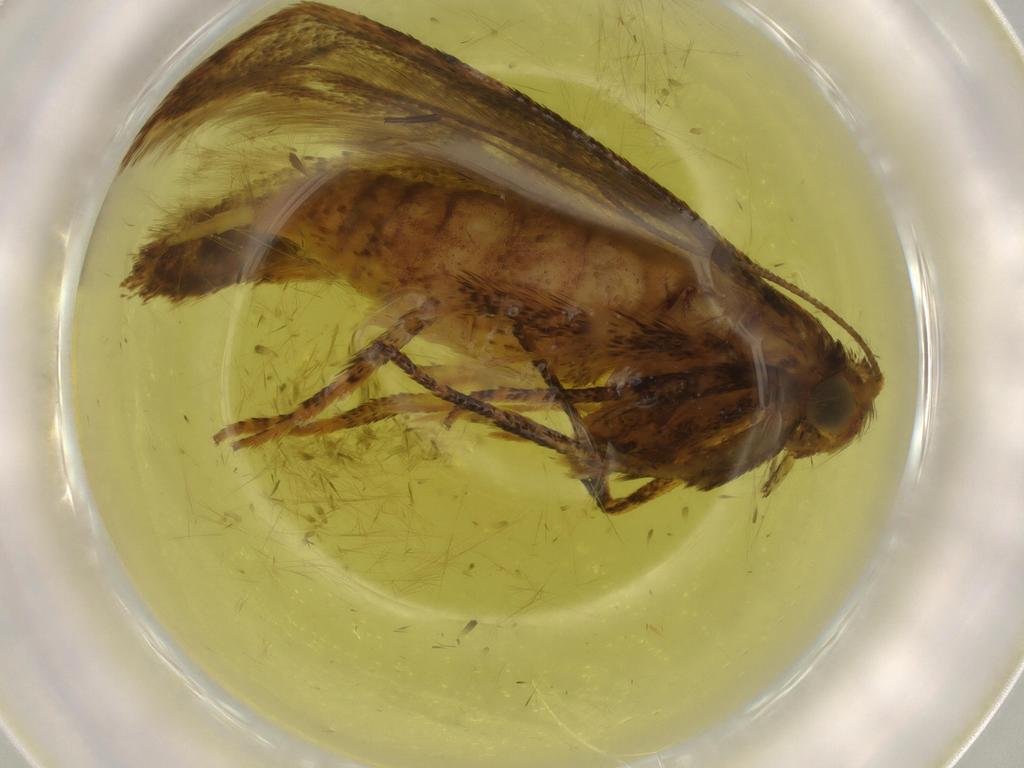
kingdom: Animalia
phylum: Arthropoda
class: Insecta
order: Lepidoptera
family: Blastobasidae
